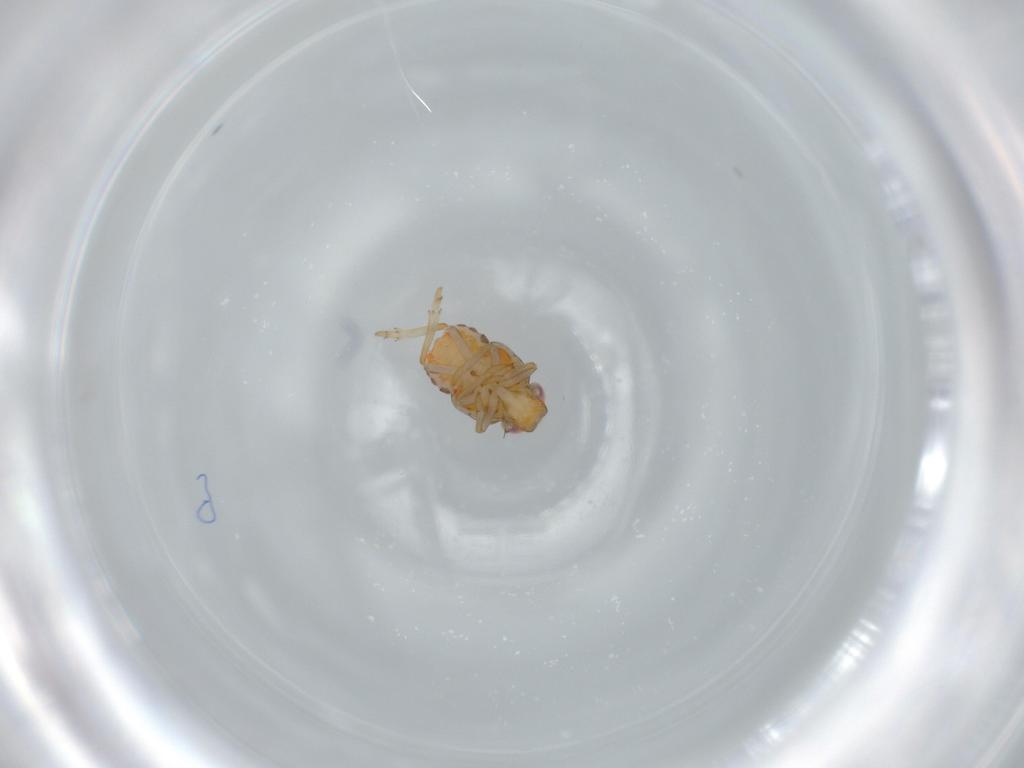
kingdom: Animalia
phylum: Arthropoda
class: Insecta
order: Hemiptera
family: Issidae
